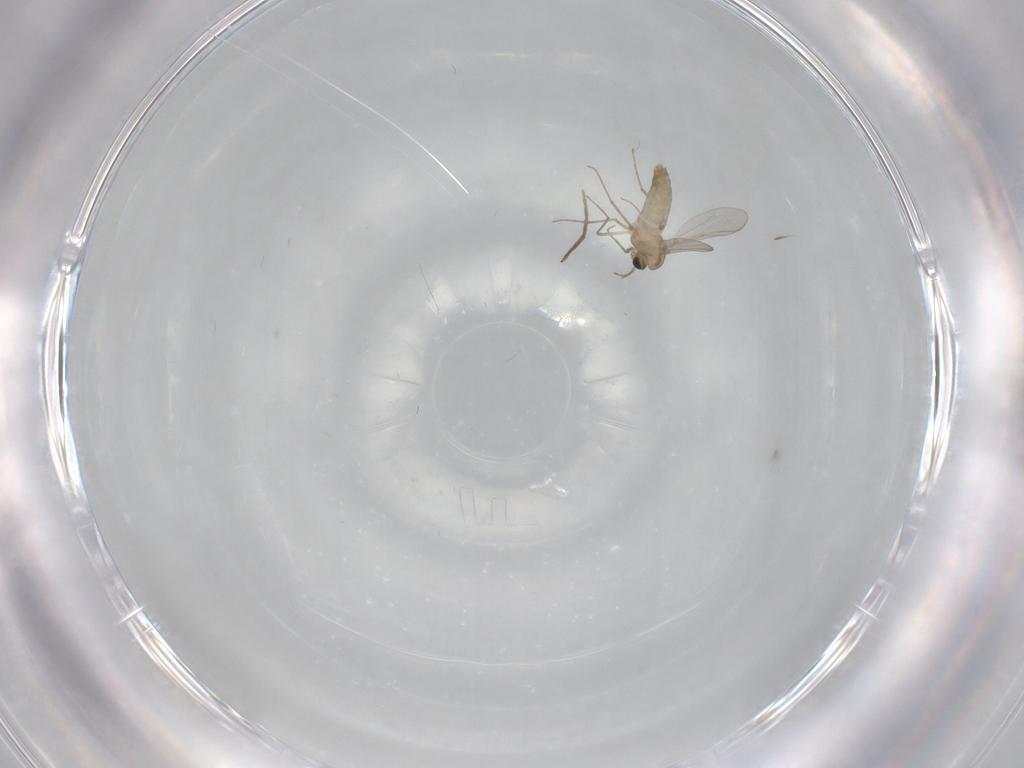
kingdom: Animalia
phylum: Arthropoda
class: Insecta
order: Diptera
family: Chironomidae
